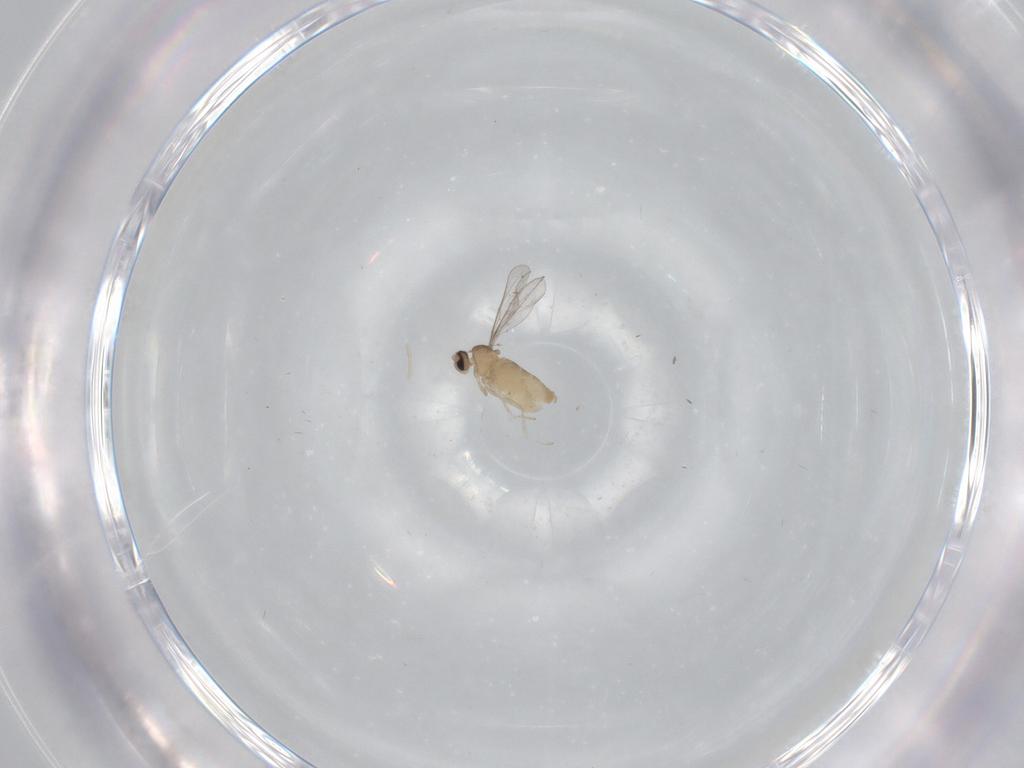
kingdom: Animalia
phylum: Arthropoda
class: Insecta
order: Diptera
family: Cecidomyiidae
